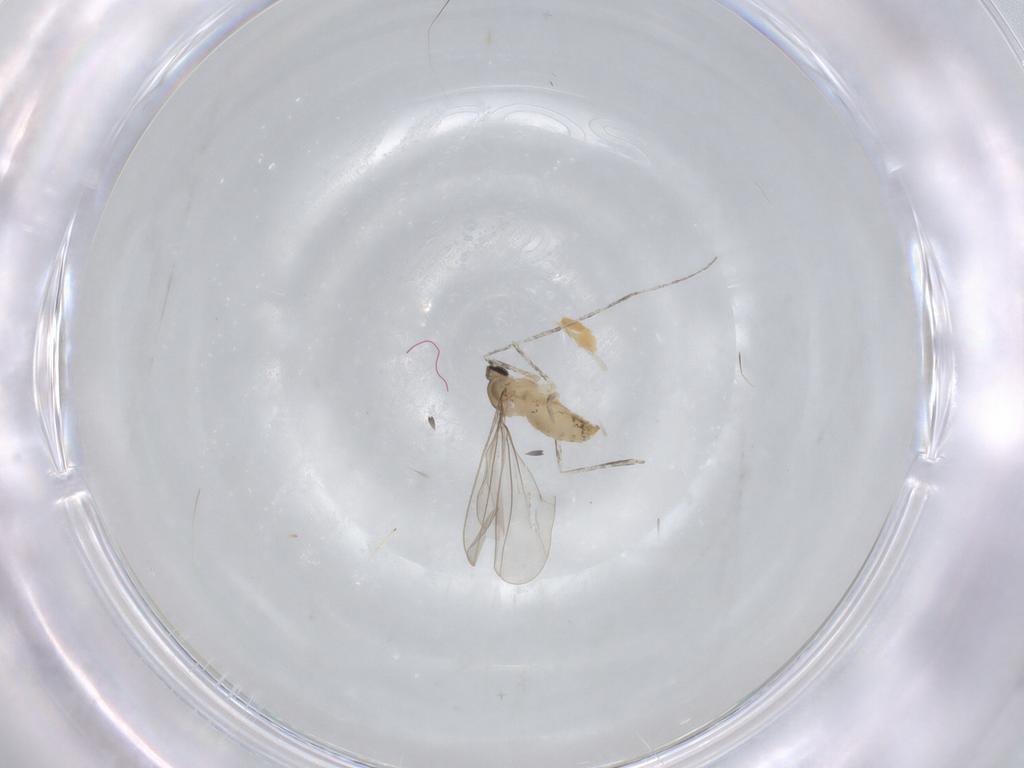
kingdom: Animalia
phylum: Arthropoda
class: Insecta
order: Diptera
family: Cecidomyiidae
